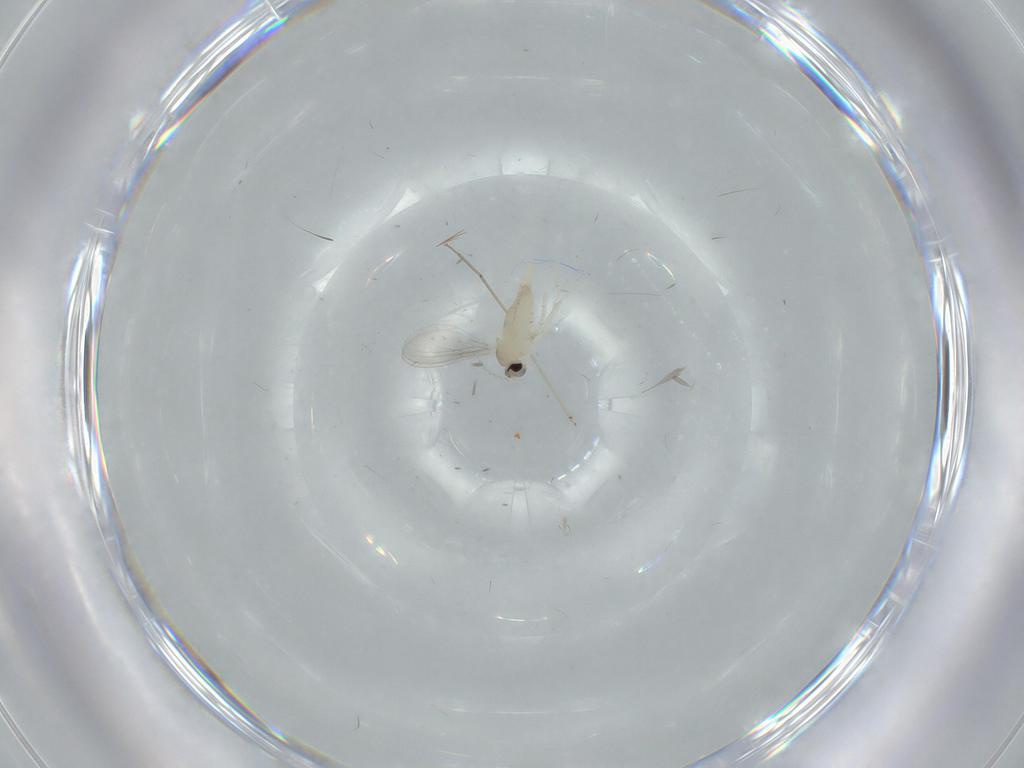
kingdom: Animalia
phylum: Arthropoda
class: Insecta
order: Diptera
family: Cecidomyiidae
